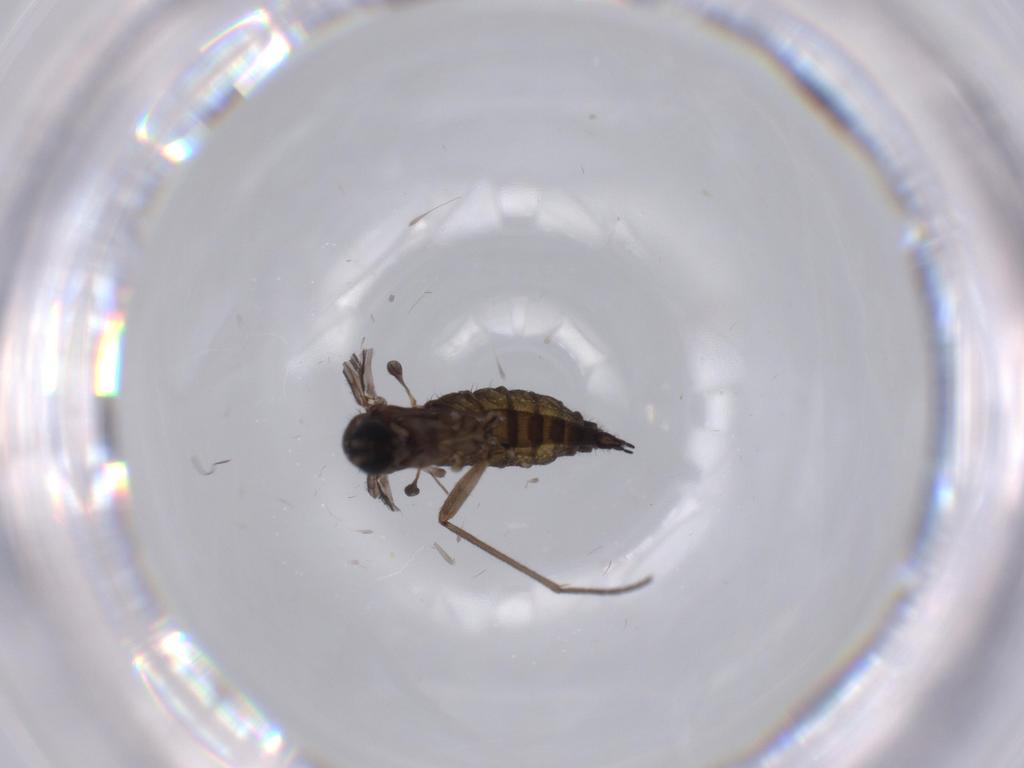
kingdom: Animalia
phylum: Arthropoda
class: Insecta
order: Diptera
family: Sciaridae
